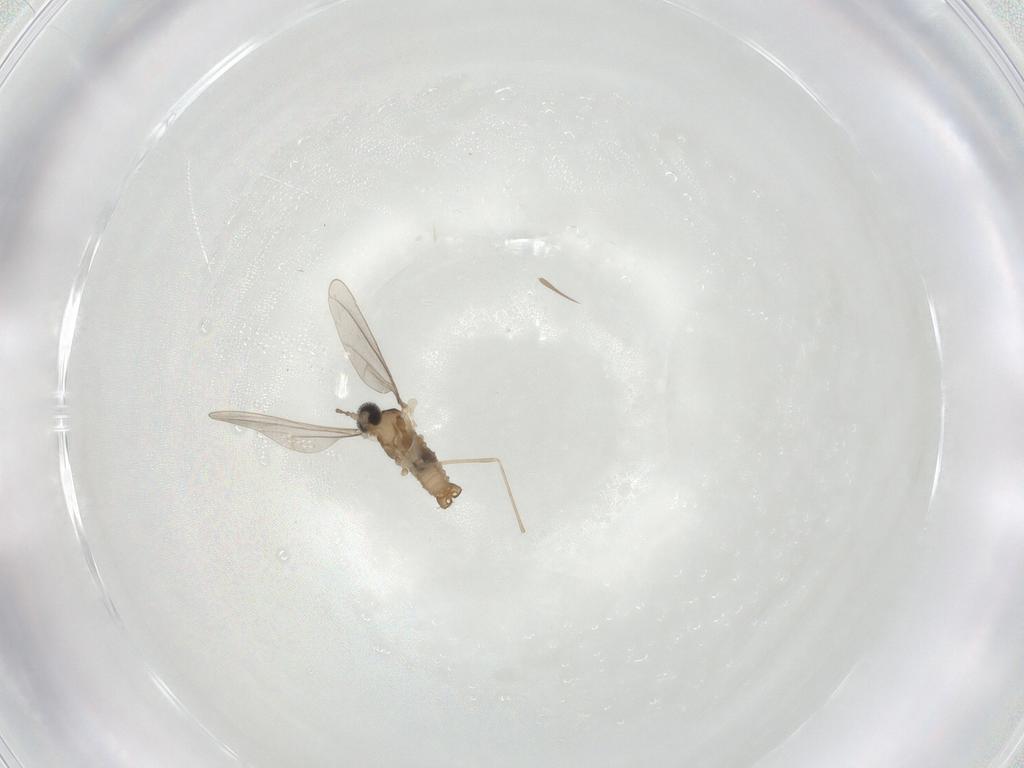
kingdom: Animalia
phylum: Arthropoda
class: Insecta
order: Diptera
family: Cecidomyiidae
